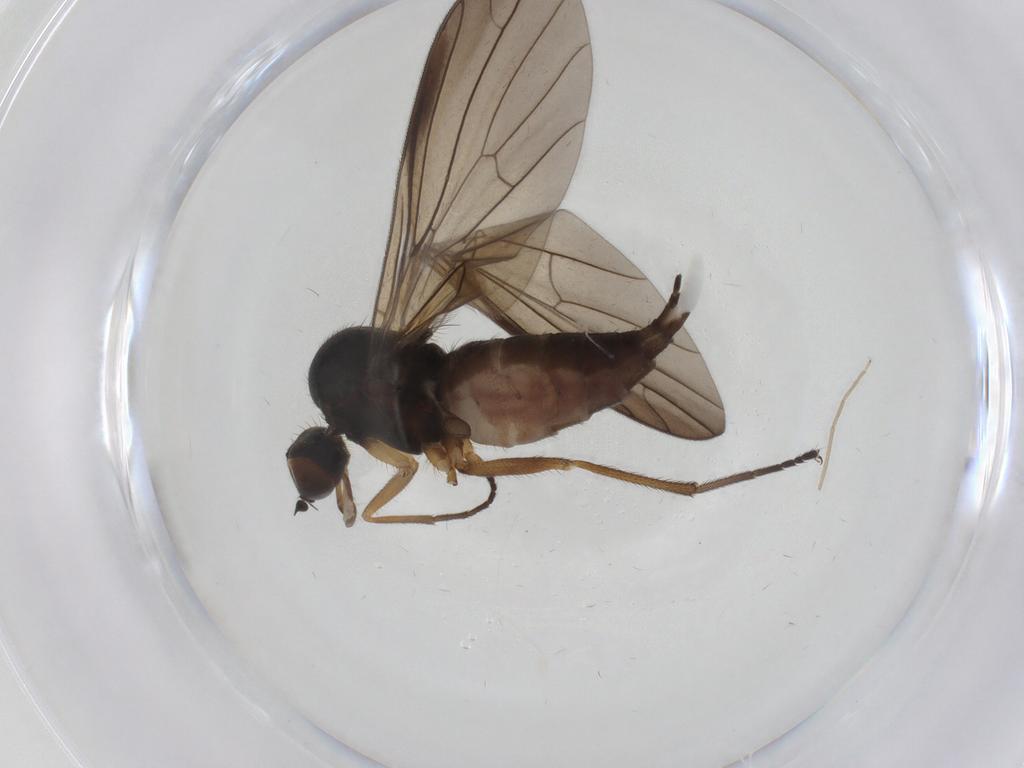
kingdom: Animalia
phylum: Arthropoda
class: Insecta
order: Diptera
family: Empididae
